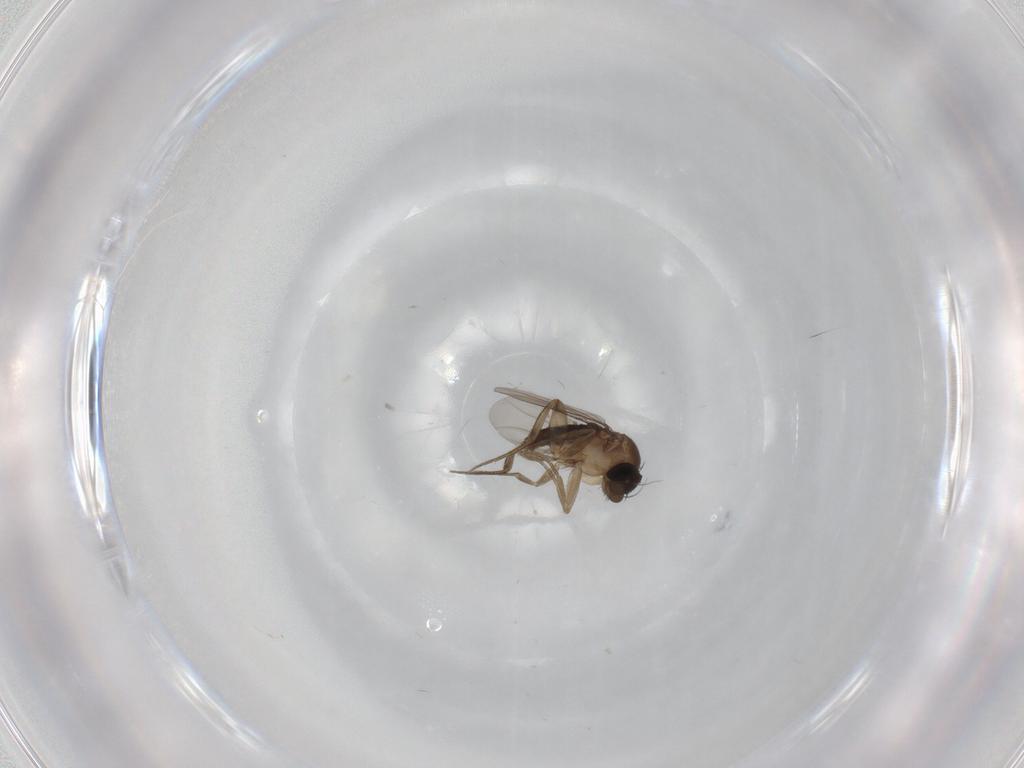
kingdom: Animalia
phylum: Arthropoda
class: Insecta
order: Diptera
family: Phoridae
